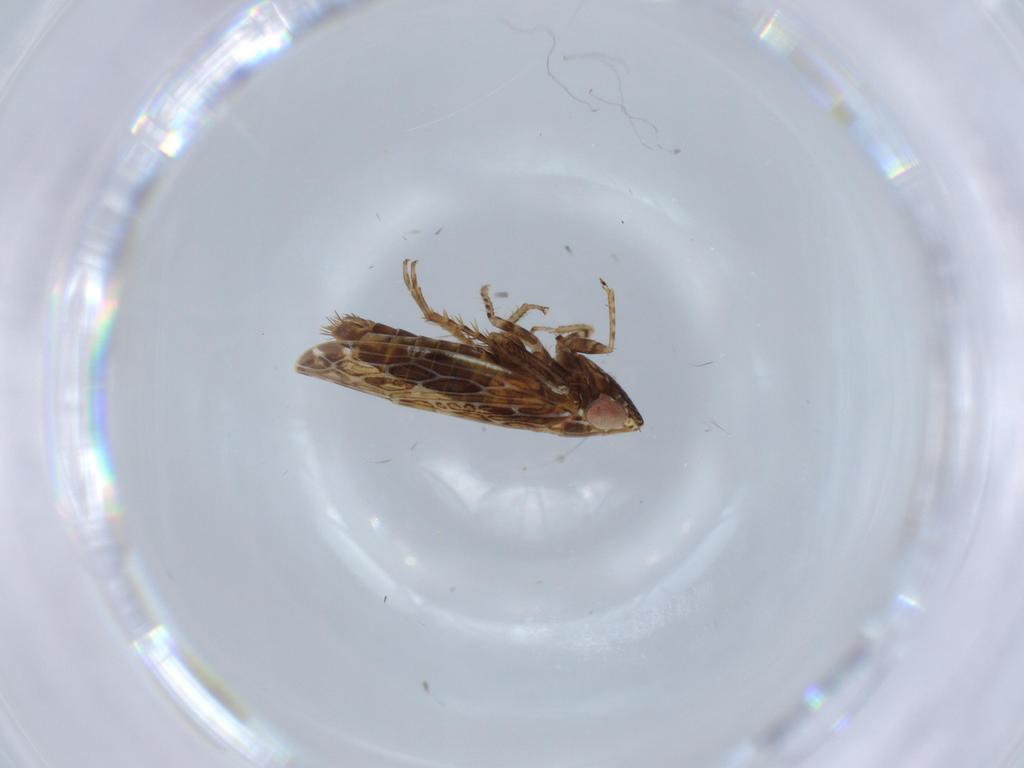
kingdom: Animalia
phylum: Arthropoda
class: Insecta
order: Hemiptera
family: Cicadellidae
